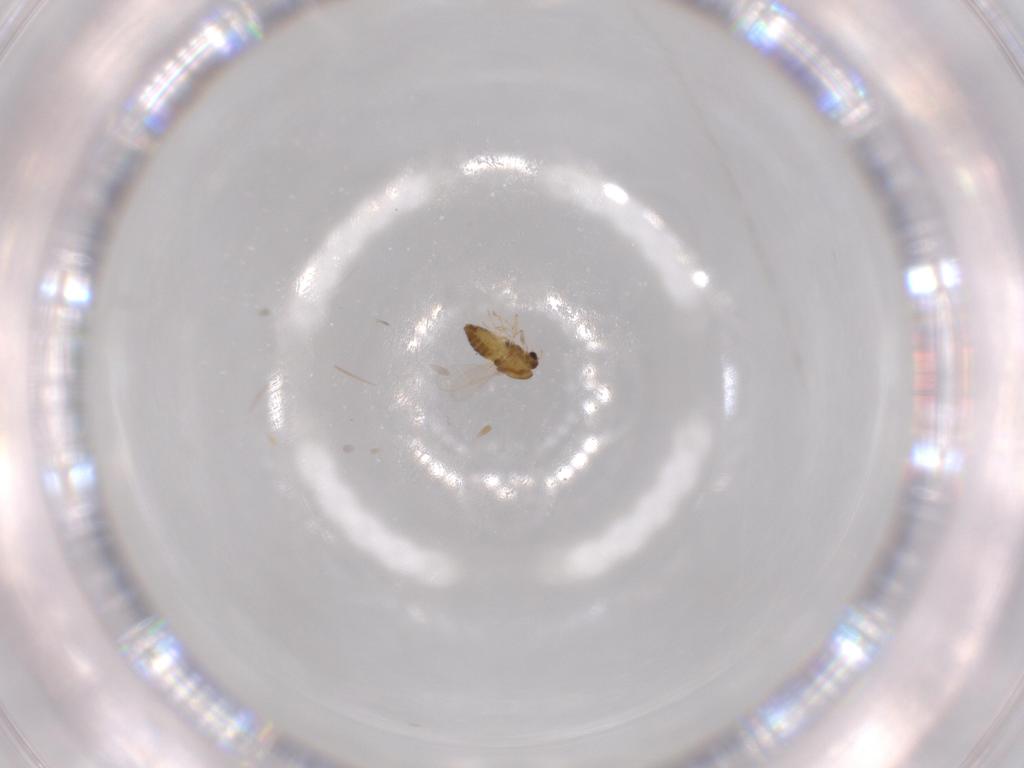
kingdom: Animalia
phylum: Arthropoda
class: Insecta
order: Diptera
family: Chironomidae
